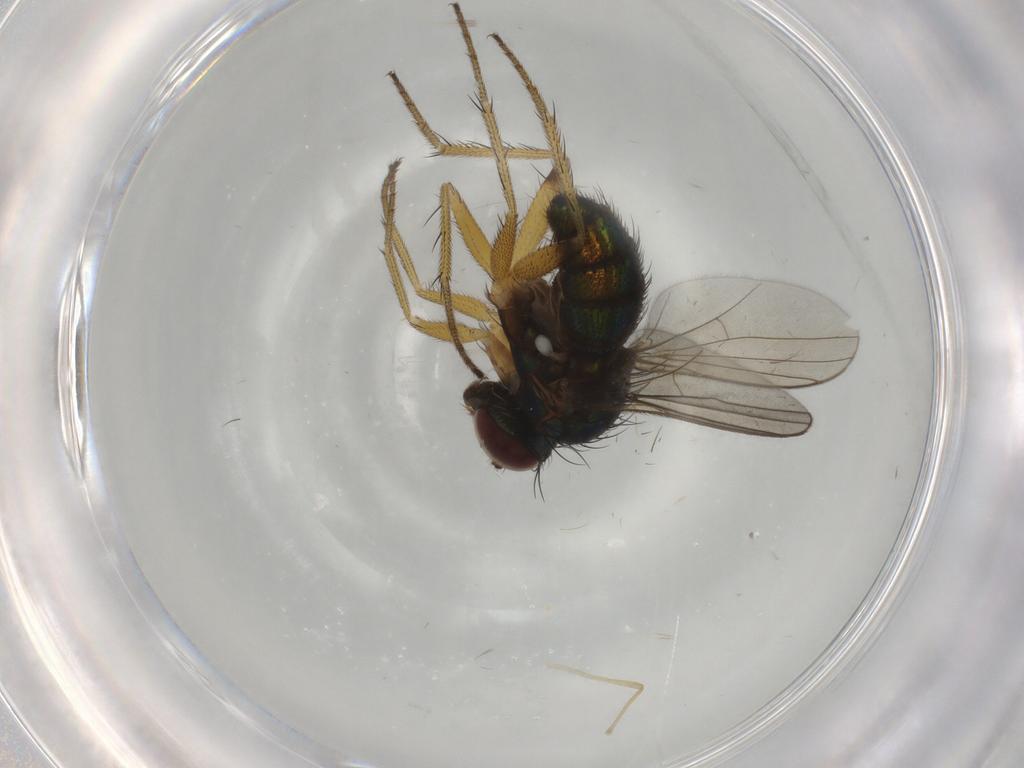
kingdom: Animalia
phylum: Arthropoda
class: Insecta
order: Diptera
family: Dolichopodidae
